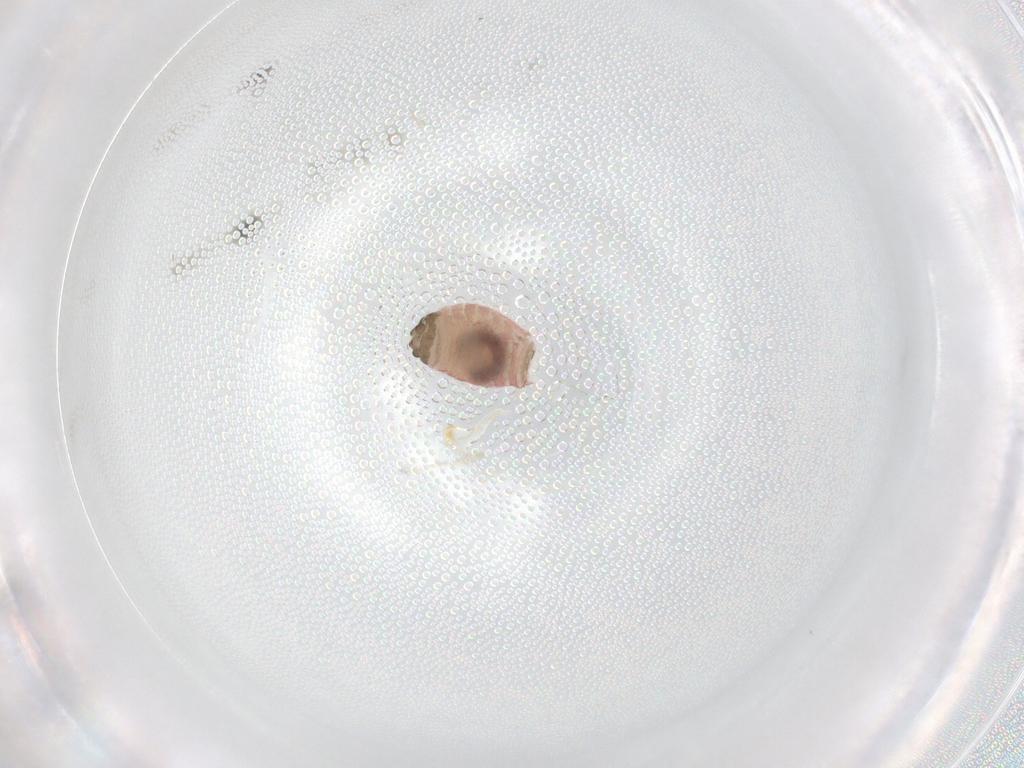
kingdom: Animalia
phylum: Arthropoda
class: Insecta
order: Psocodea
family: Caeciliusidae
